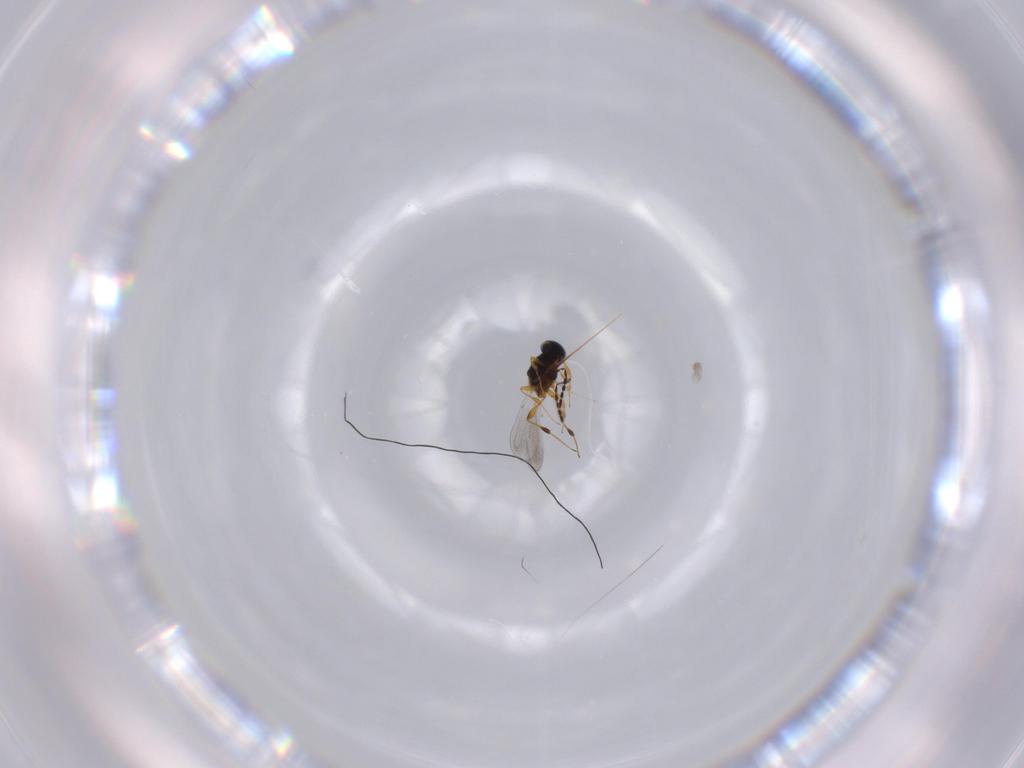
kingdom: Animalia
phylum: Arthropoda
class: Insecta
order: Hymenoptera
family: Platygastridae
